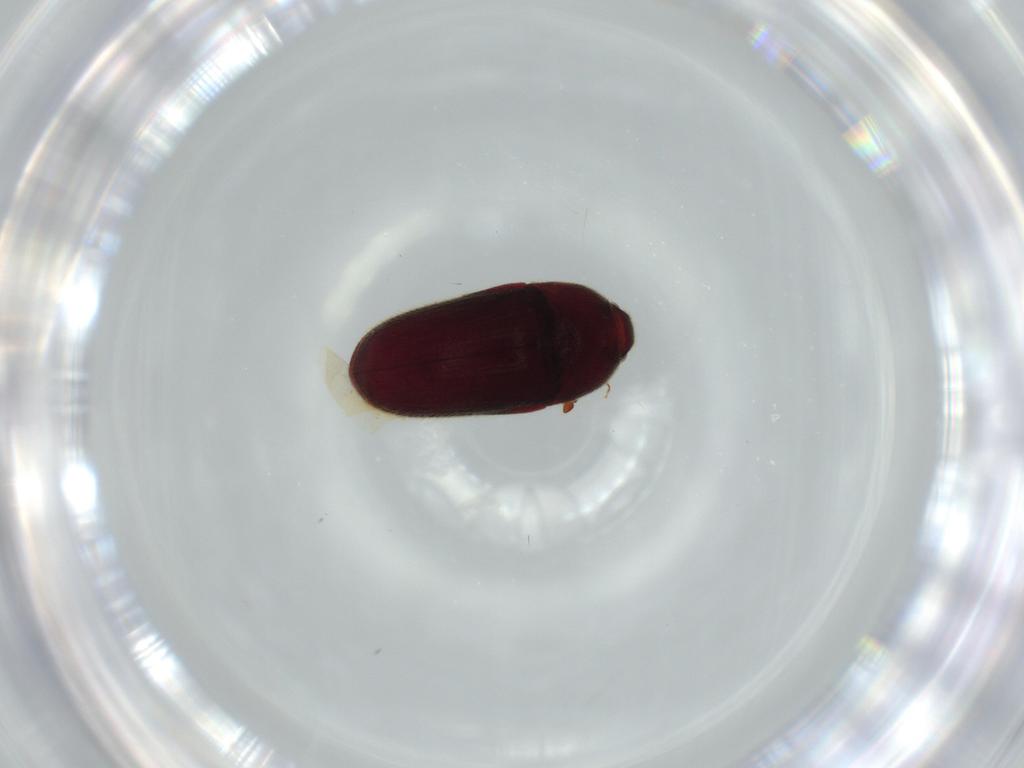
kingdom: Animalia
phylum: Arthropoda
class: Insecta
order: Coleoptera
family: Throscidae
